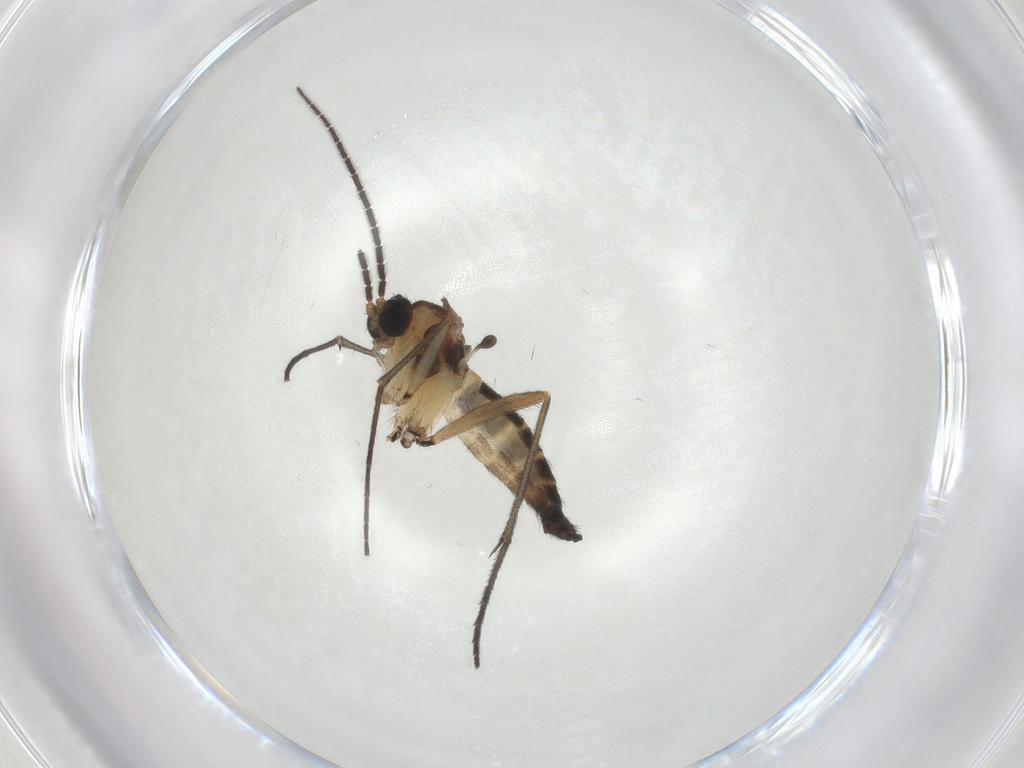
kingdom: Animalia
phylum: Arthropoda
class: Insecta
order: Diptera
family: Sciaridae
